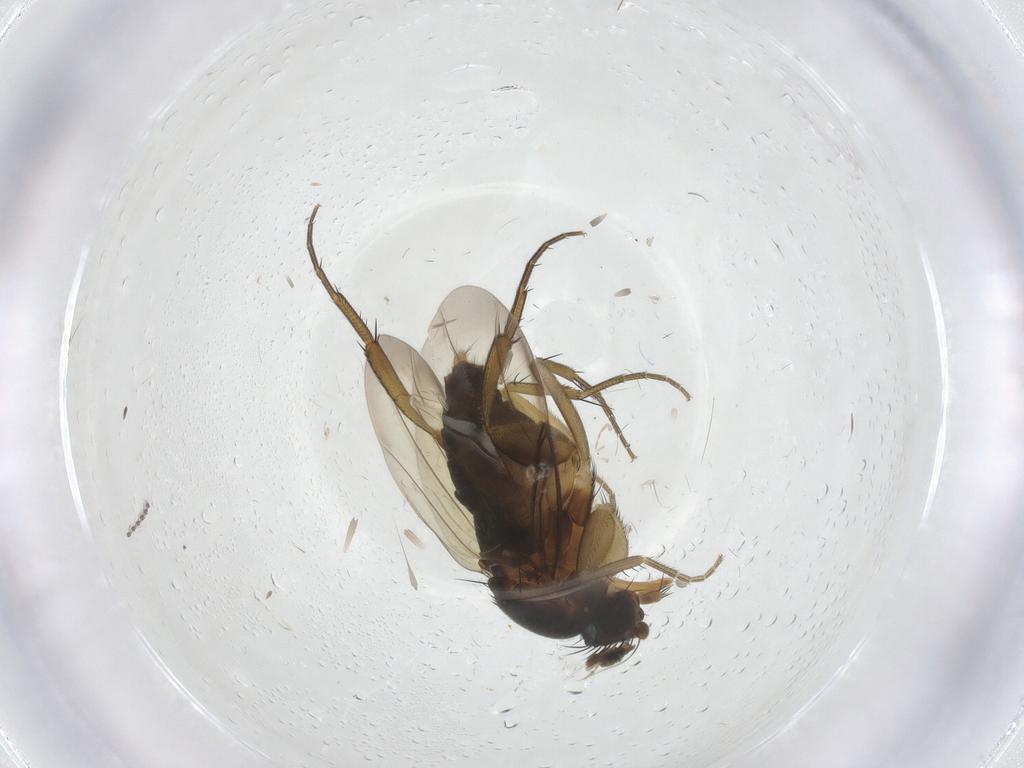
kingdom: Animalia
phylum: Arthropoda
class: Insecta
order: Diptera
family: Phoridae
